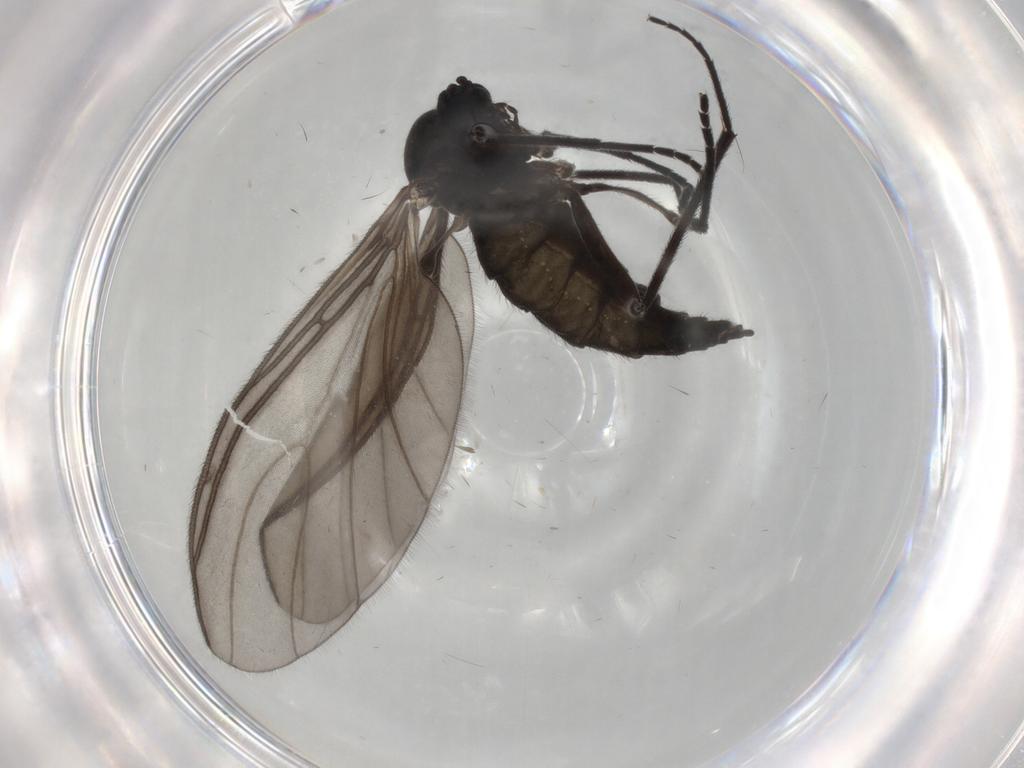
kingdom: Animalia
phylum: Arthropoda
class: Insecta
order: Diptera
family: Sciaridae
